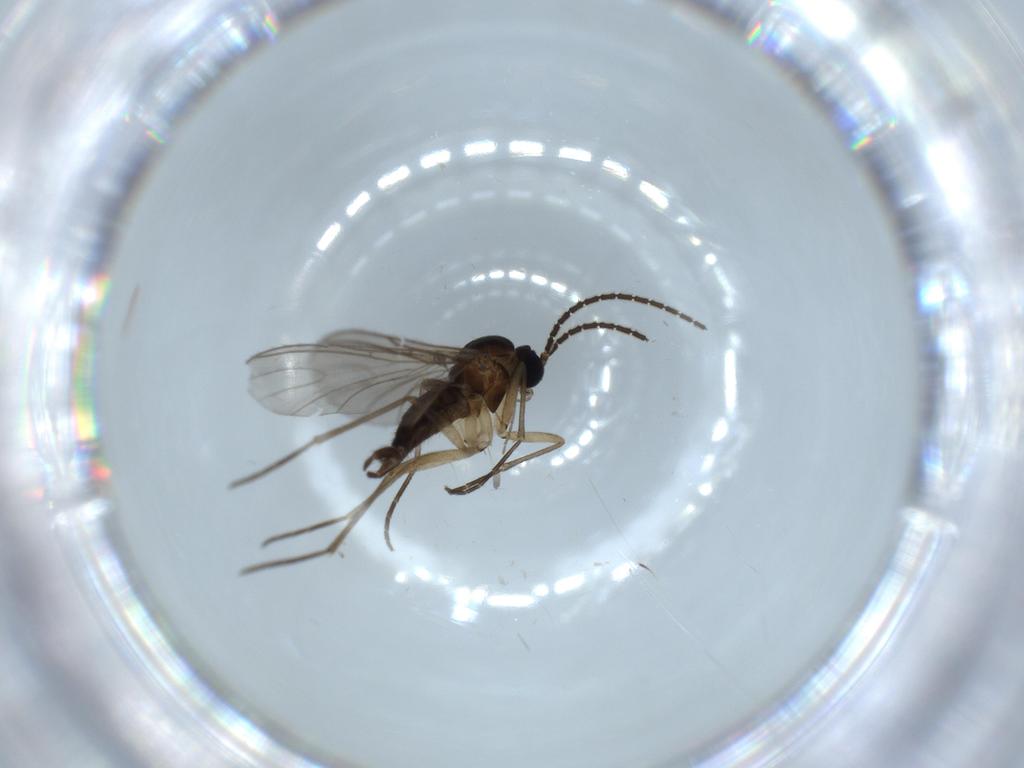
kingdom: Animalia
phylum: Arthropoda
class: Insecta
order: Diptera
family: Sciaridae
